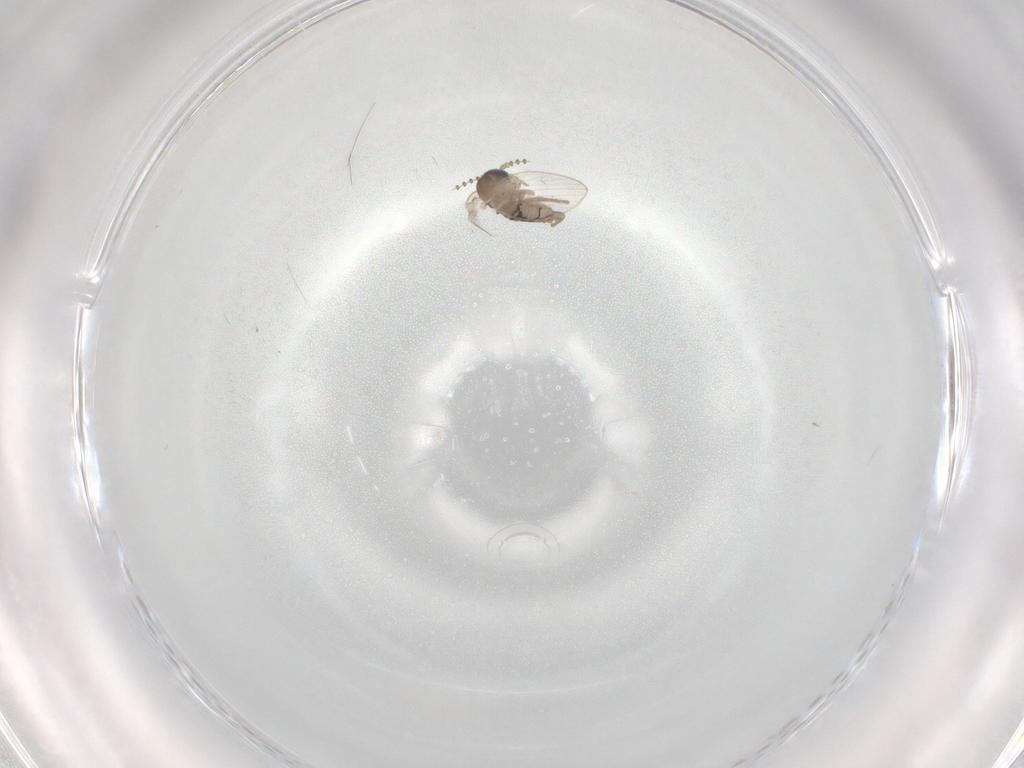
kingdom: Animalia
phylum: Arthropoda
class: Insecta
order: Diptera
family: Psychodidae
